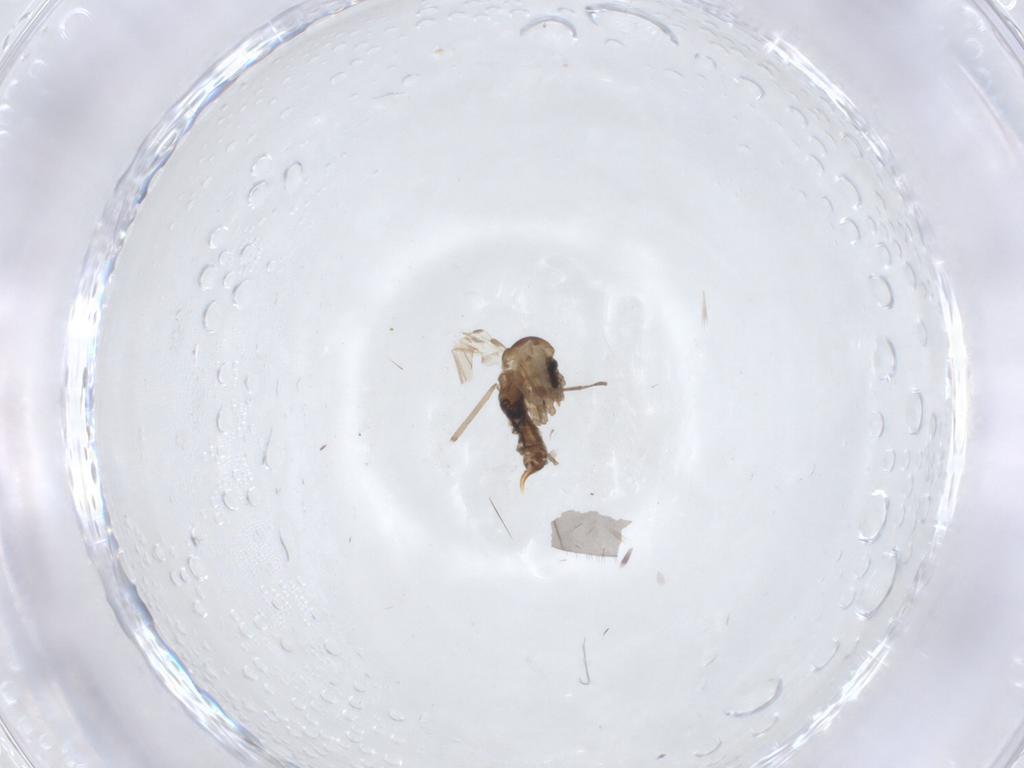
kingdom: Animalia
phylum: Arthropoda
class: Insecta
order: Diptera
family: Psychodidae
